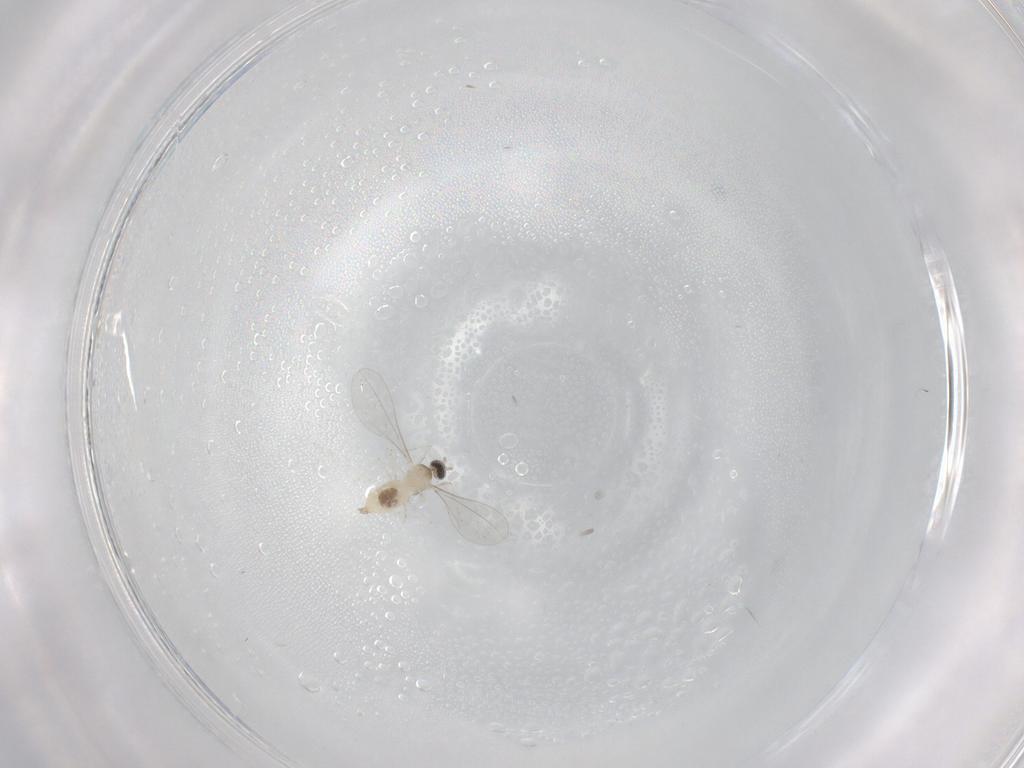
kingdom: Animalia
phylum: Arthropoda
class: Insecta
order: Diptera
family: Cecidomyiidae
